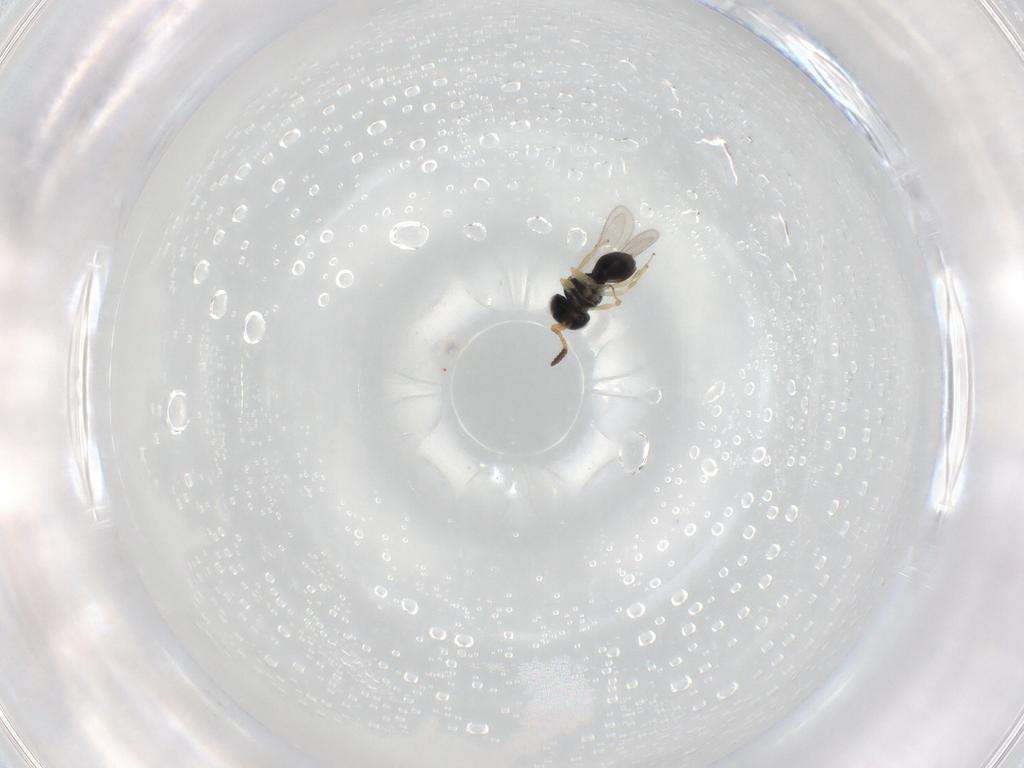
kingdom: Animalia
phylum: Arthropoda
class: Insecta
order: Hymenoptera
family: Scelionidae
